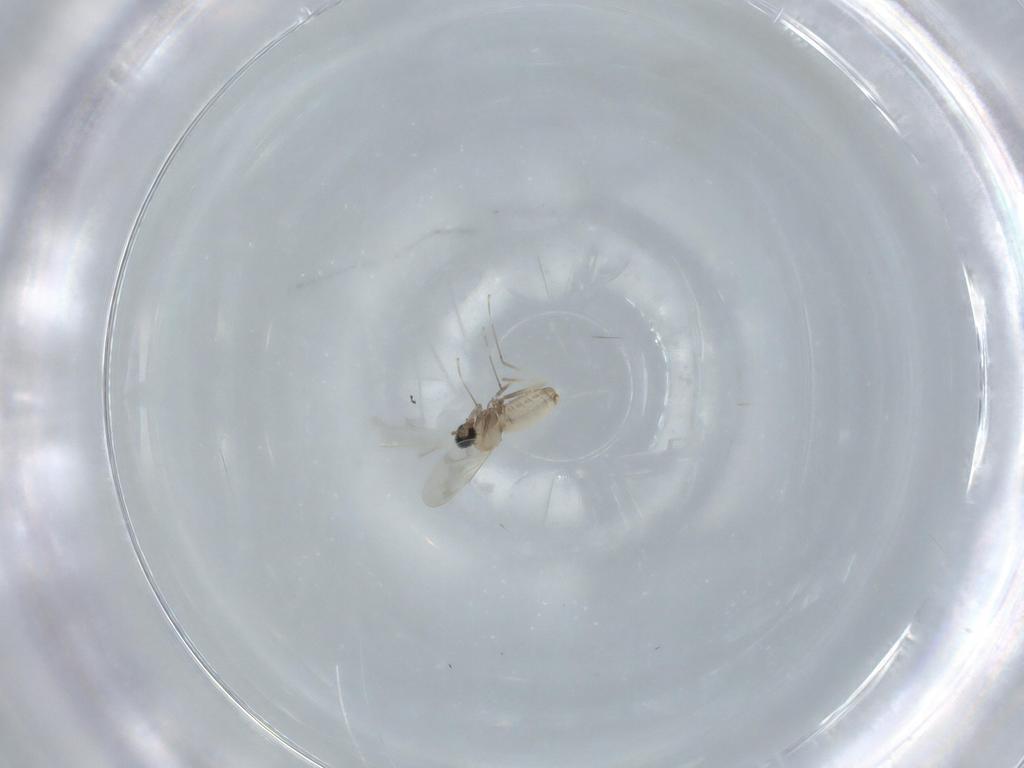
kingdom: Animalia
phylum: Arthropoda
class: Insecta
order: Diptera
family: Cecidomyiidae
